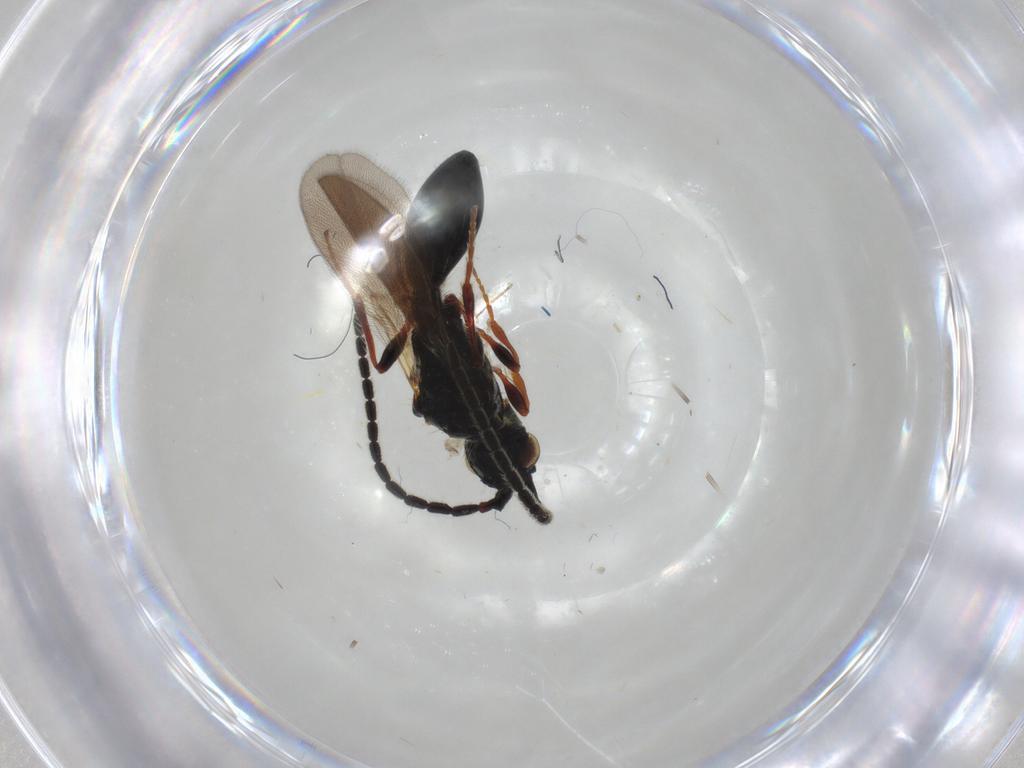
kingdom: Animalia
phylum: Arthropoda
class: Insecta
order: Hymenoptera
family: Diapriidae
